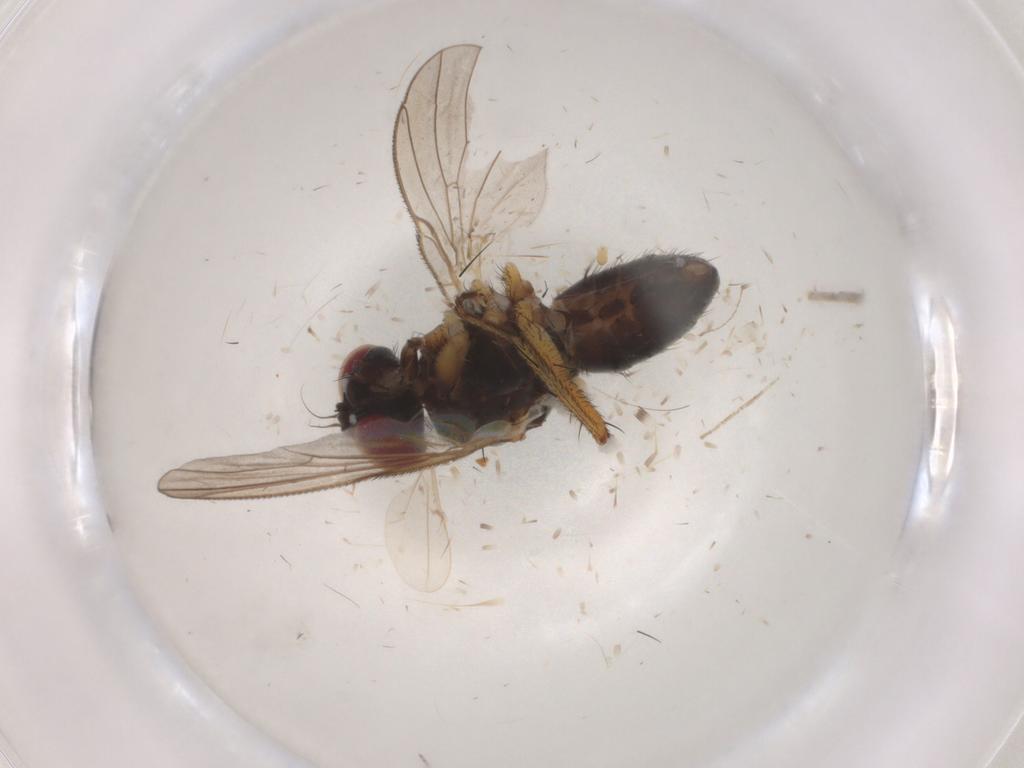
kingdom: Animalia
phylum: Arthropoda
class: Insecta
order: Diptera
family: Muscidae
